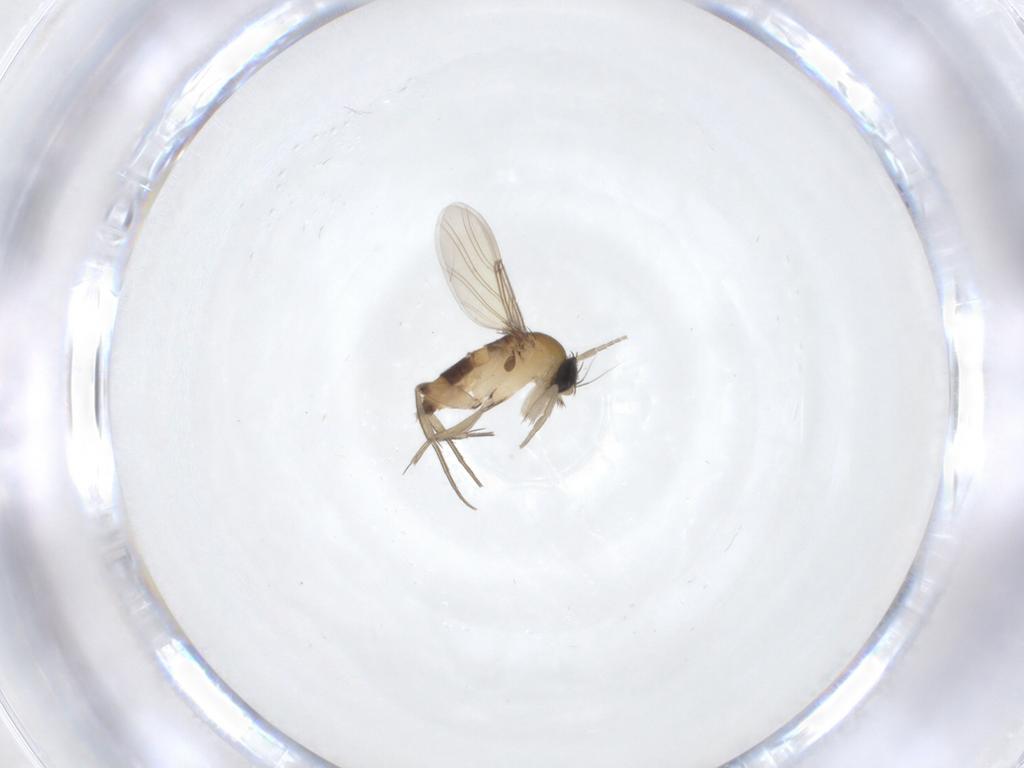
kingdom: Animalia
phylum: Arthropoda
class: Insecta
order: Diptera
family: Phoridae
